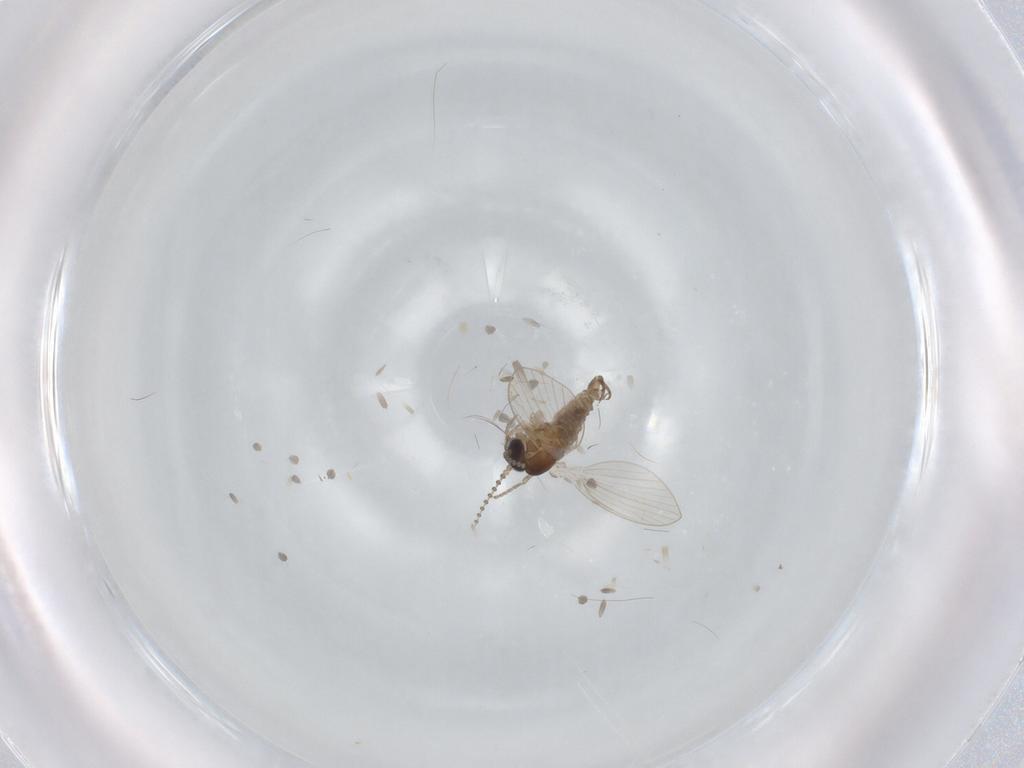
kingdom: Animalia
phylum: Arthropoda
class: Insecta
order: Diptera
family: Psychodidae
